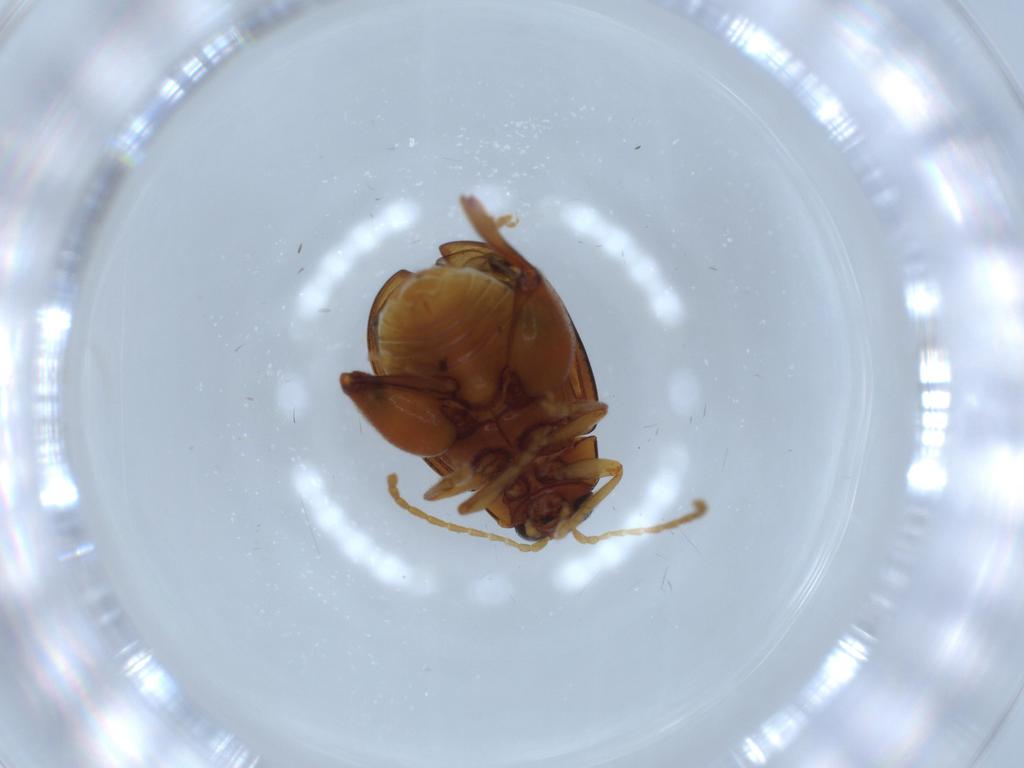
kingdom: Animalia
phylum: Arthropoda
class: Insecta
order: Coleoptera
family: Chrysomelidae
